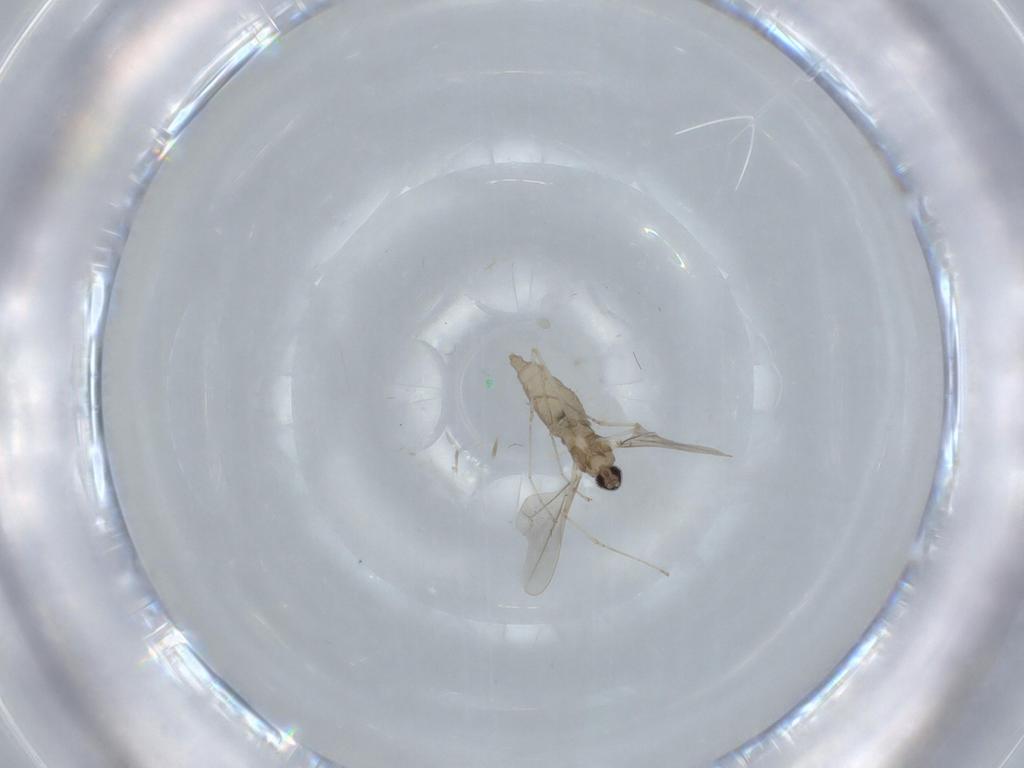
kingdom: Animalia
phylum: Arthropoda
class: Insecta
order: Diptera
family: Cecidomyiidae
